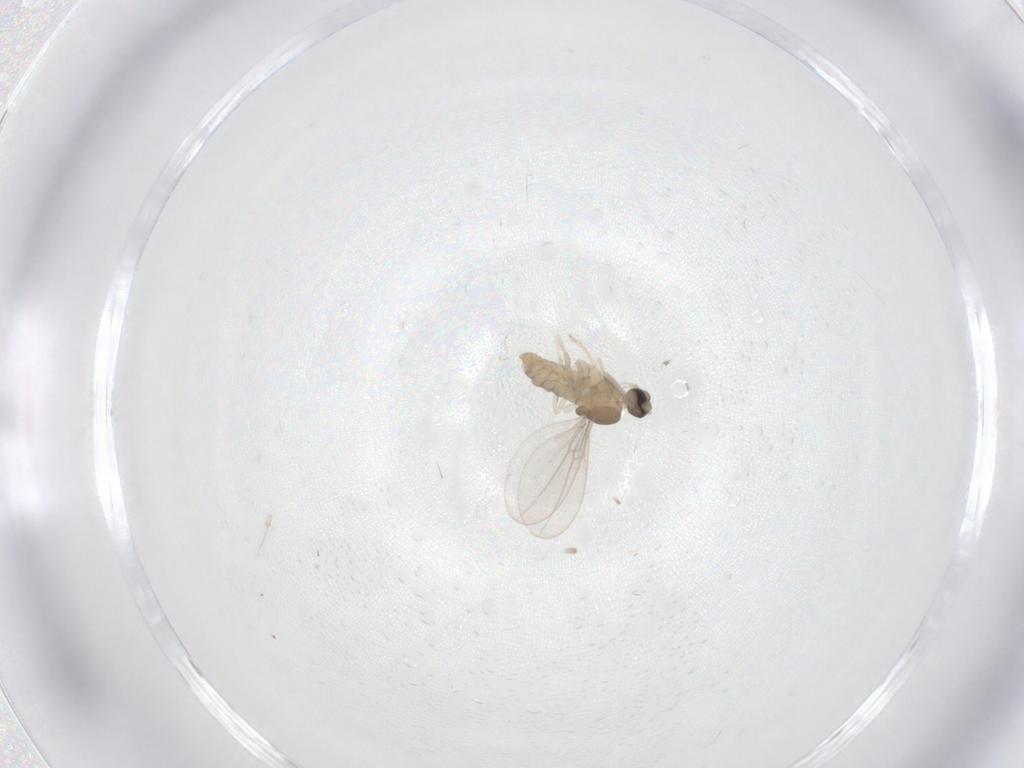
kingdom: Animalia
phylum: Arthropoda
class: Insecta
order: Diptera
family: Cecidomyiidae
